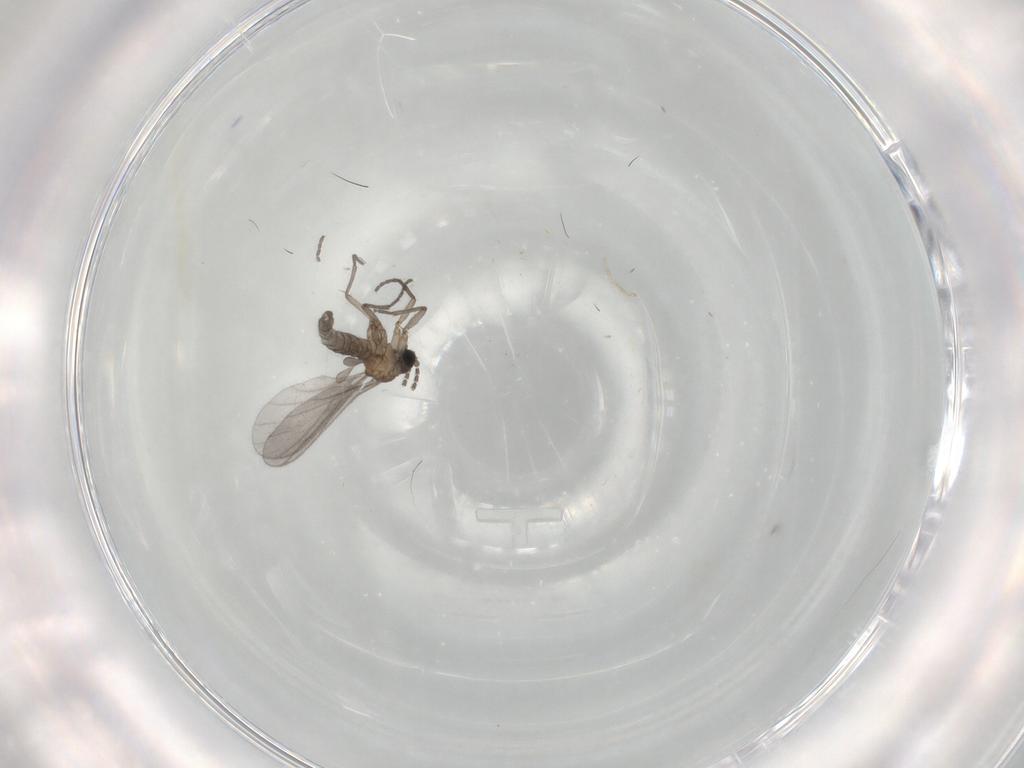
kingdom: Animalia
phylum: Arthropoda
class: Insecta
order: Diptera
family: Sciaridae
